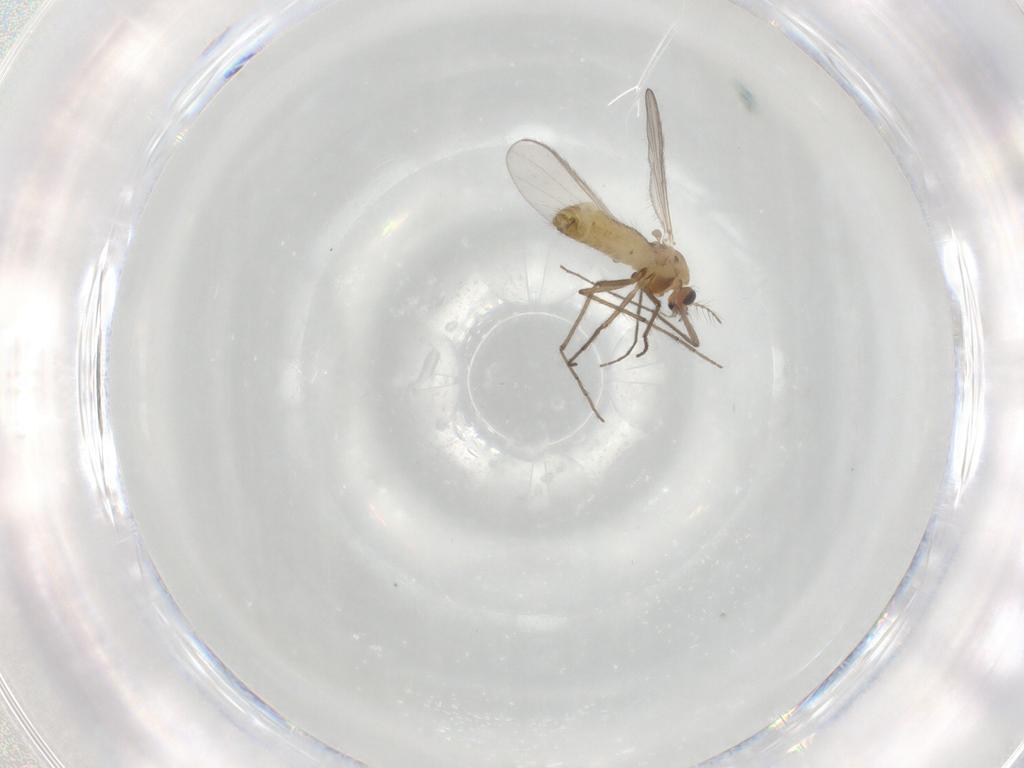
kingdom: Animalia
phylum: Arthropoda
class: Insecta
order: Diptera
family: Chironomidae
